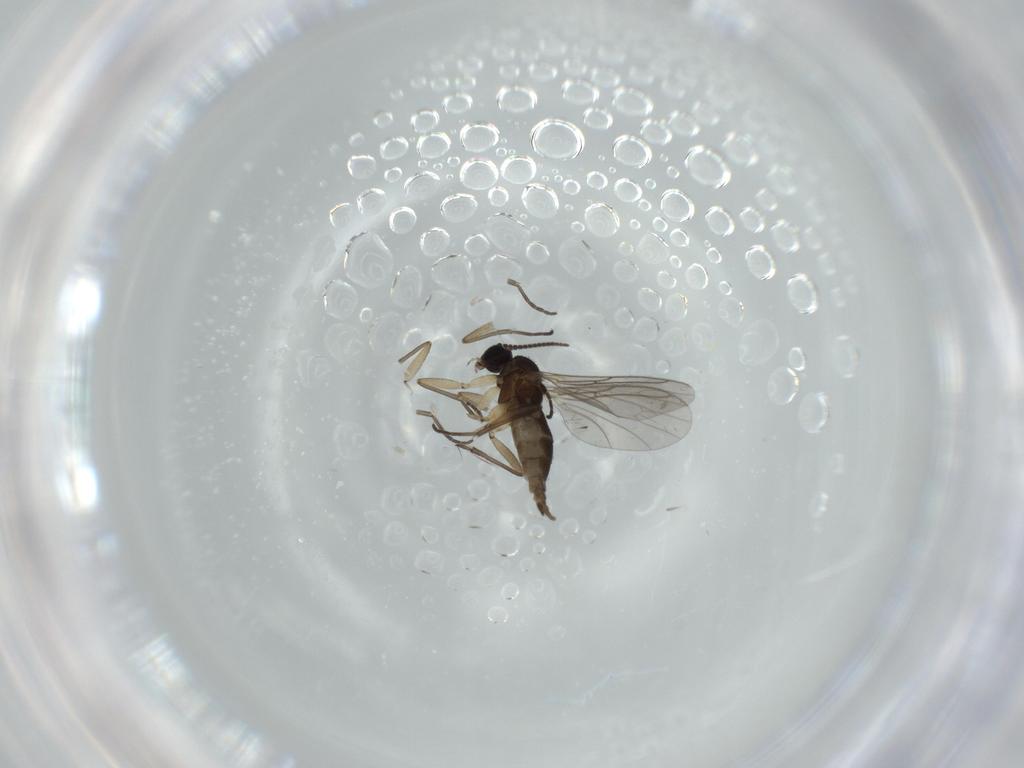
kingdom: Animalia
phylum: Arthropoda
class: Insecta
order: Diptera
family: Sciaridae
